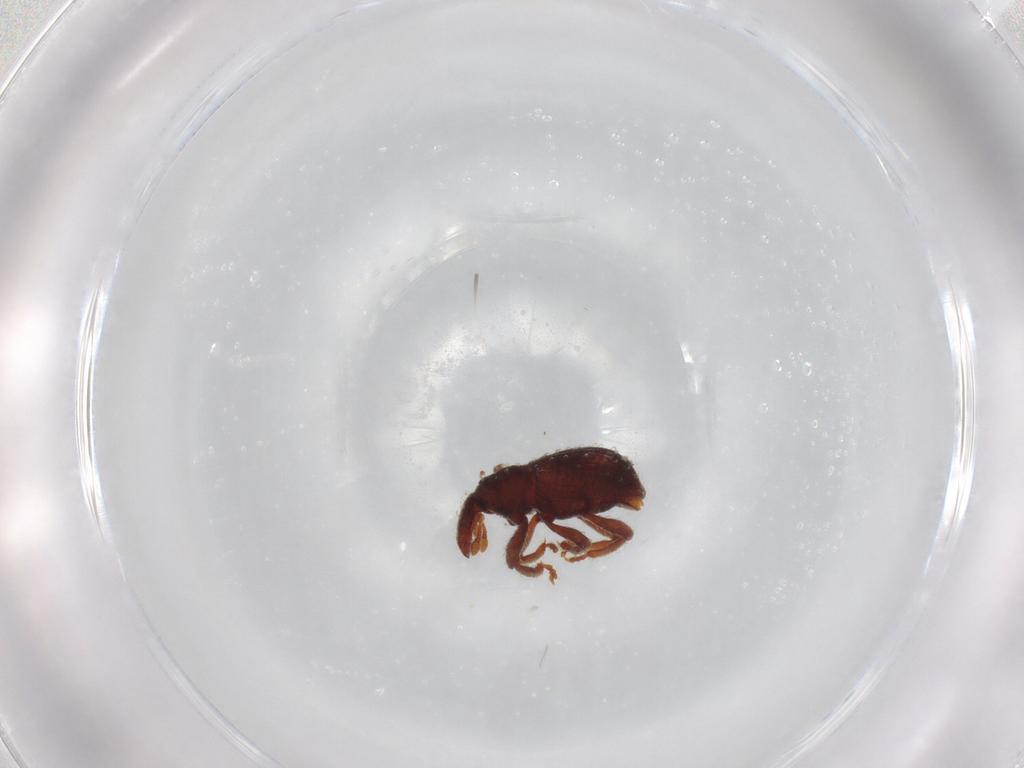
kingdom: Animalia
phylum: Arthropoda
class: Insecta
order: Coleoptera
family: Curculionidae
